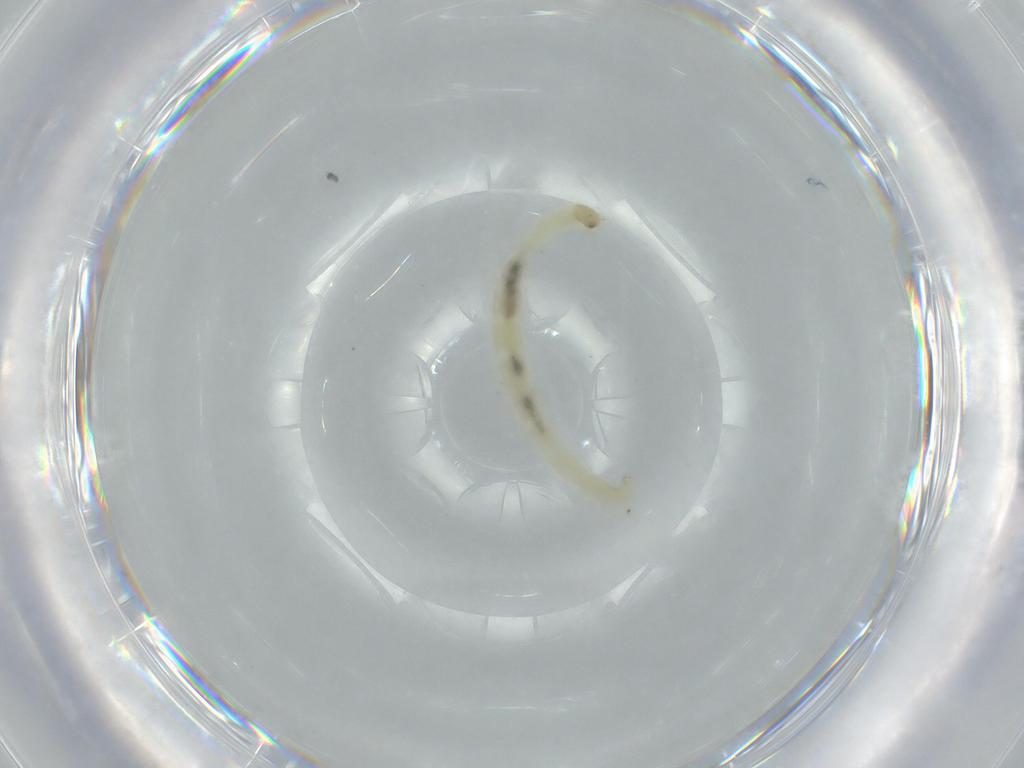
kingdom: Animalia
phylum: Arthropoda
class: Insecta
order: Diptera
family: Chironomidae
